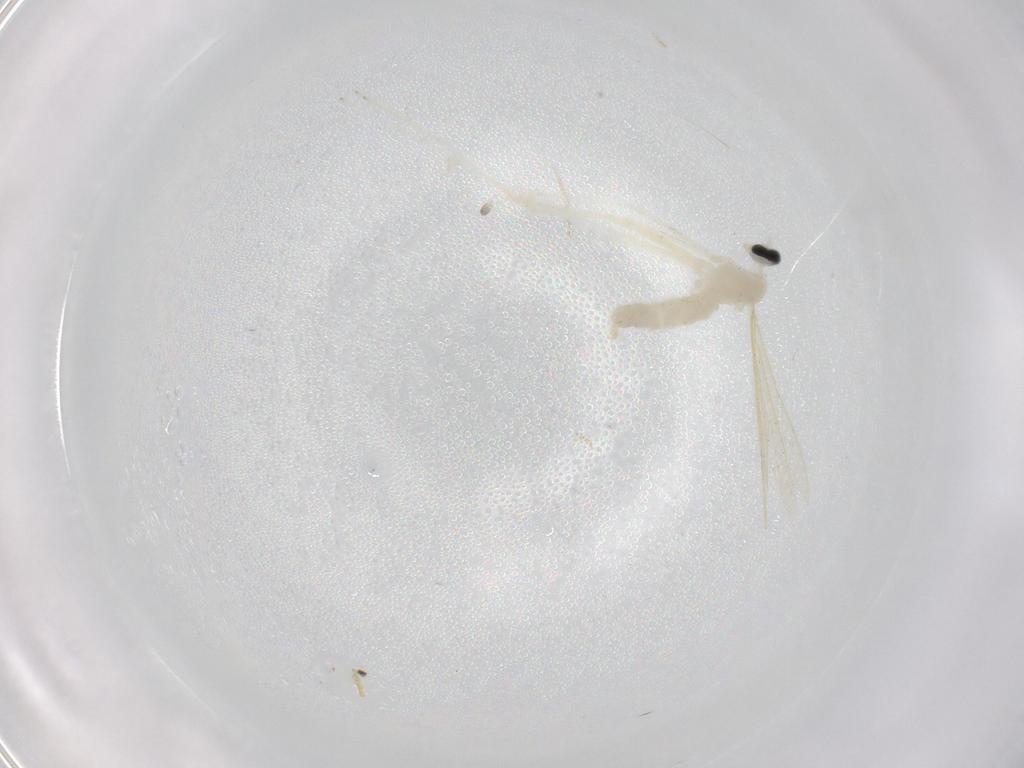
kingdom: Animalia
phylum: Arthropoda
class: Insecta
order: Diptera
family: Cecidomyiidae
